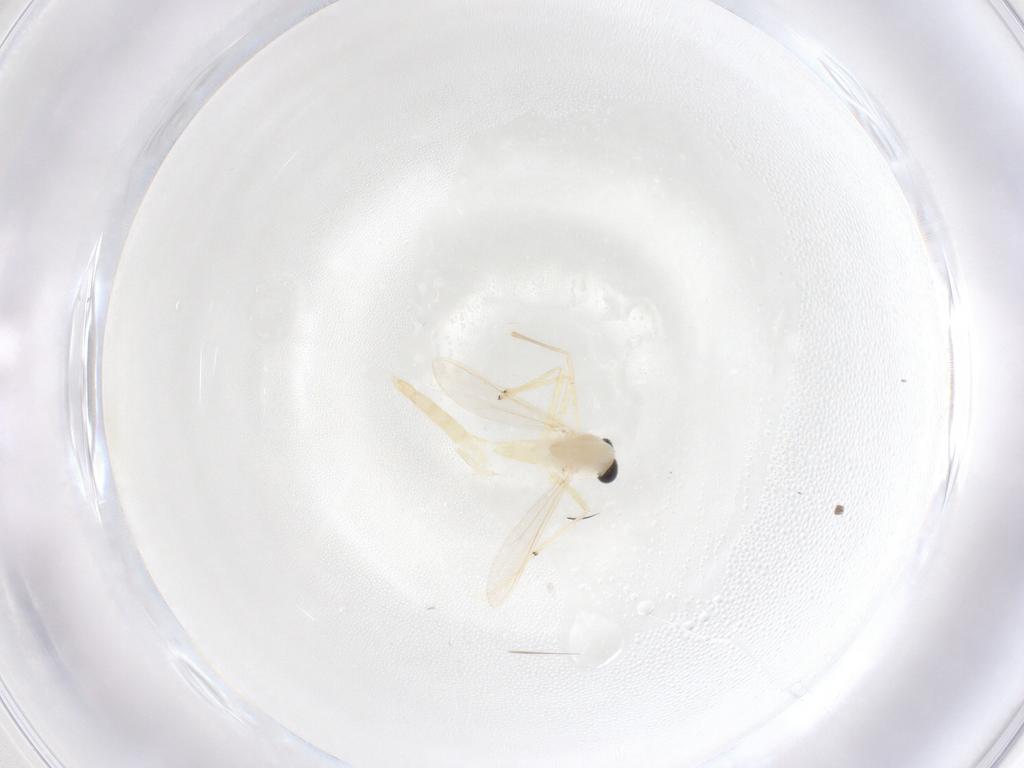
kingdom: Animalia
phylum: Arthropoda
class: Insecta
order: Diptera
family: Chironomidae
